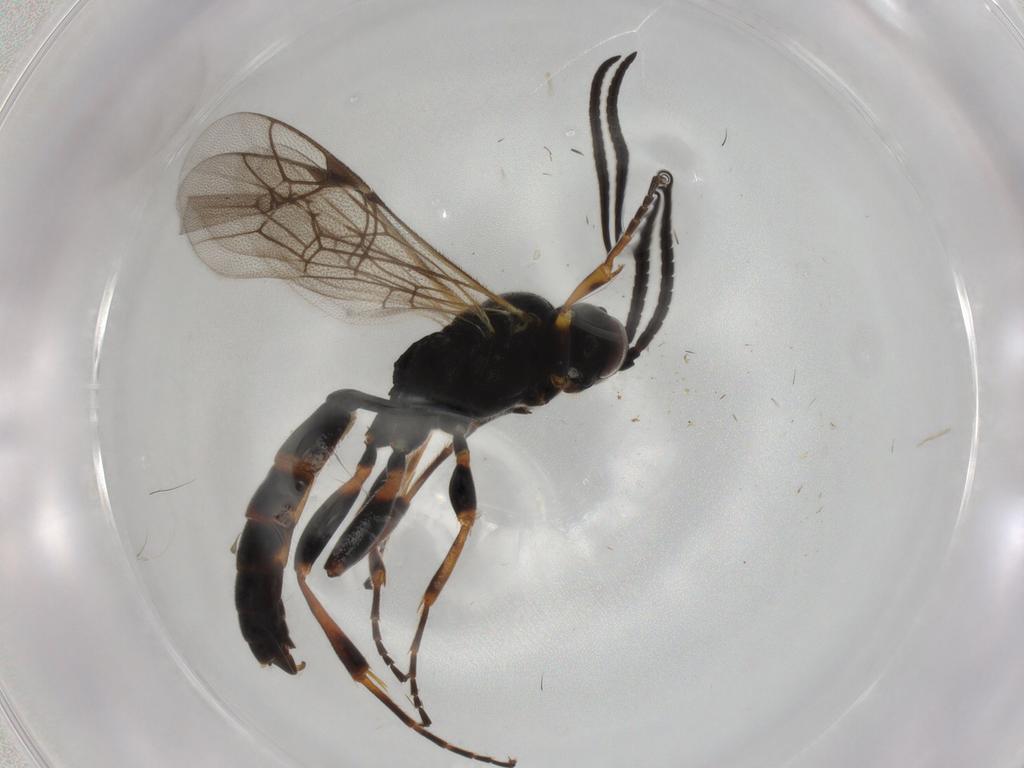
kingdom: Animalia
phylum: Arthropoda
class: Insecta
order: Hymenoptera
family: Ichneumonidae
